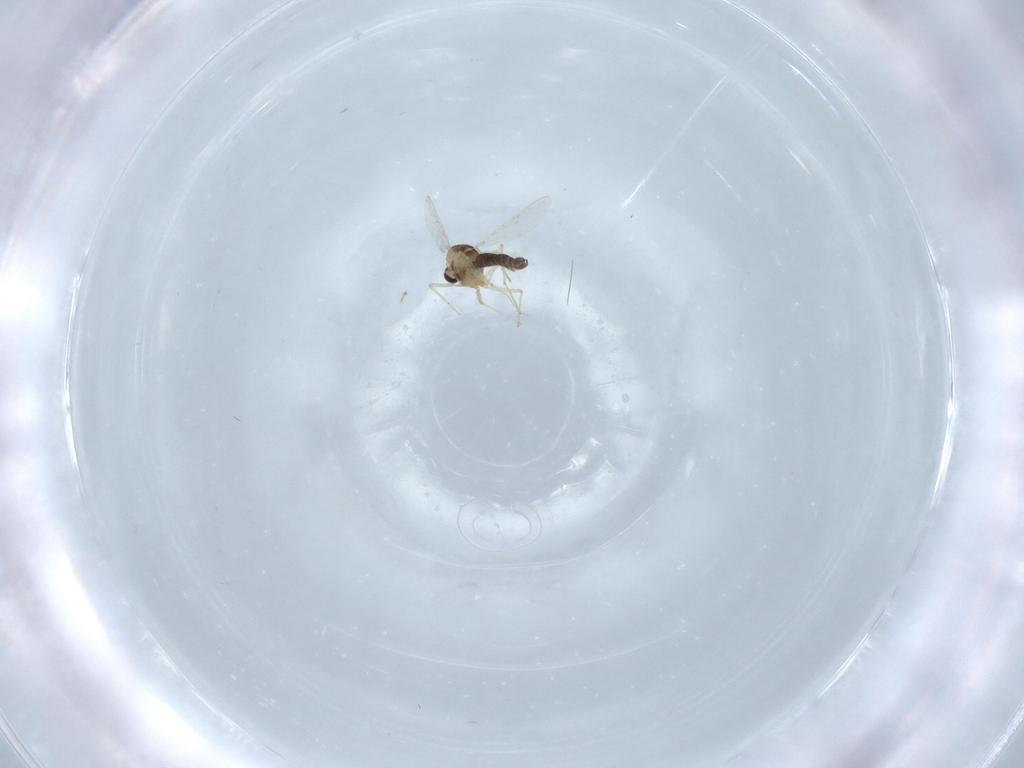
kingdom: Animalia
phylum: Arthropoda
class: Insecta
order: Diptera
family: Chironomidae
